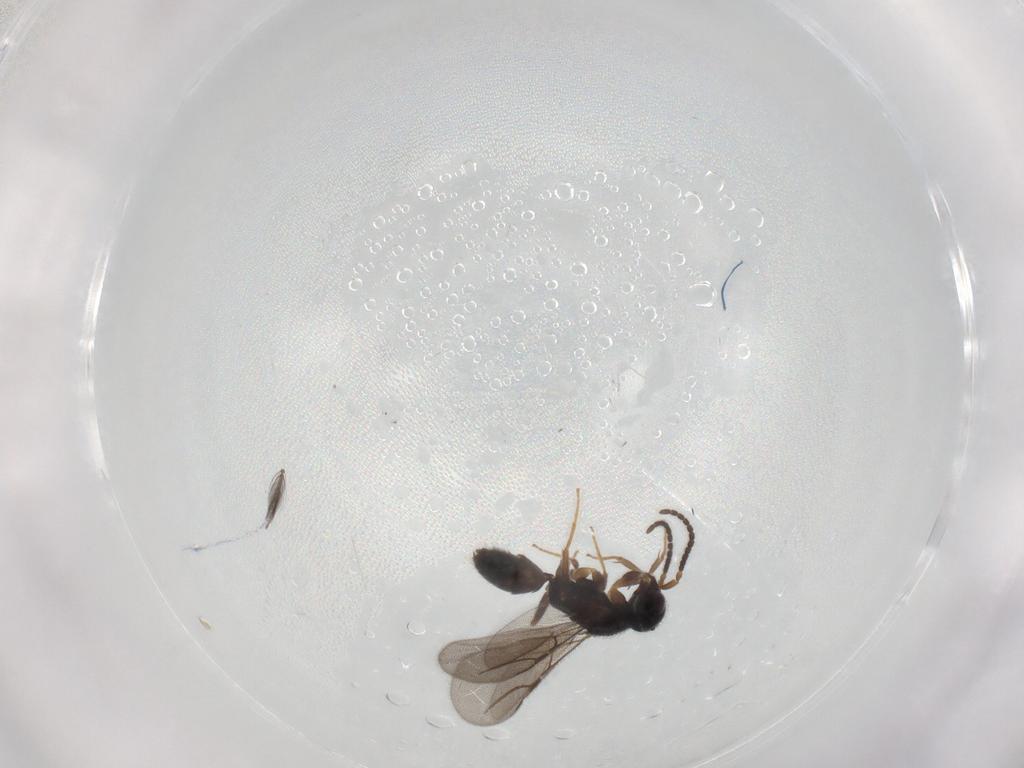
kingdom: Animalia
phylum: Arthropoda
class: Insecta
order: Hymenoptera
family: Bethylidae
